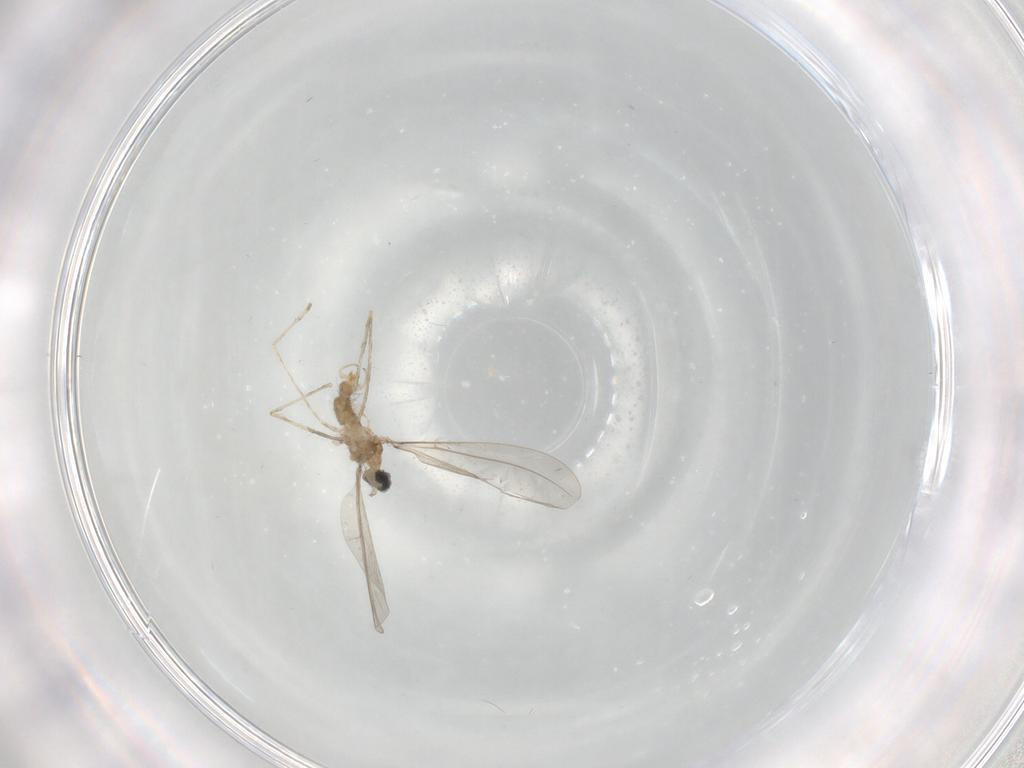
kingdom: Animalia
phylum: Arthropoda
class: Insecta
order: Diptera
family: Cecidomyiidae
